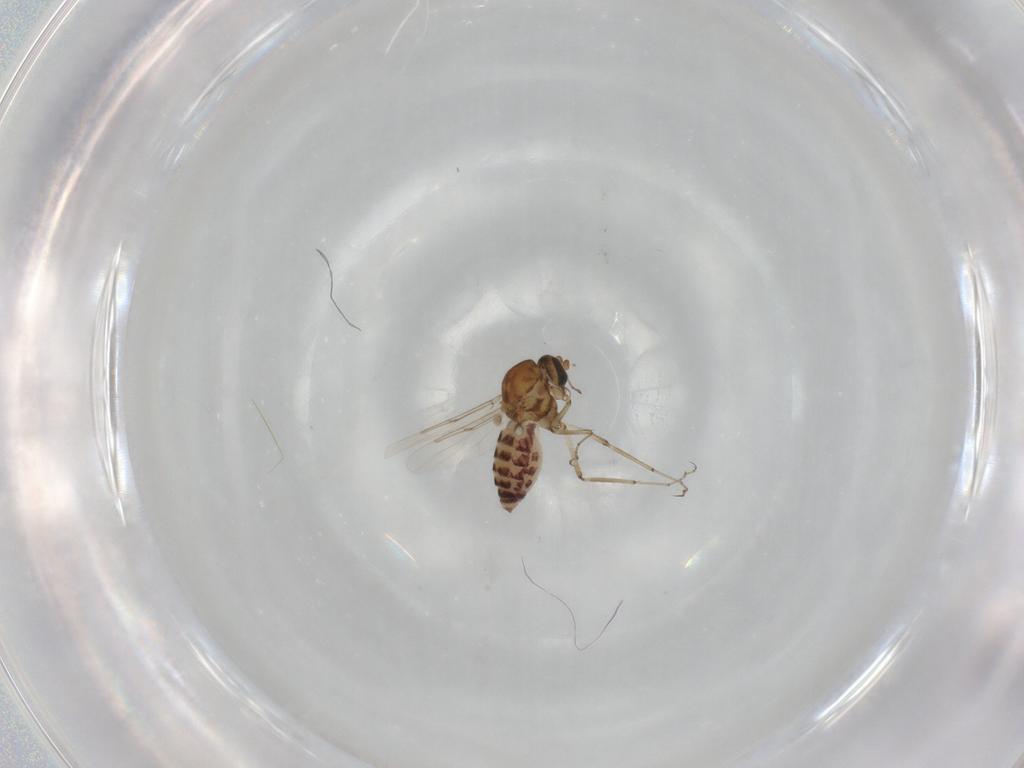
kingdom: Animalia
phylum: Arthropoda
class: Insecta
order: Diptera
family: Ceratopogonidae
